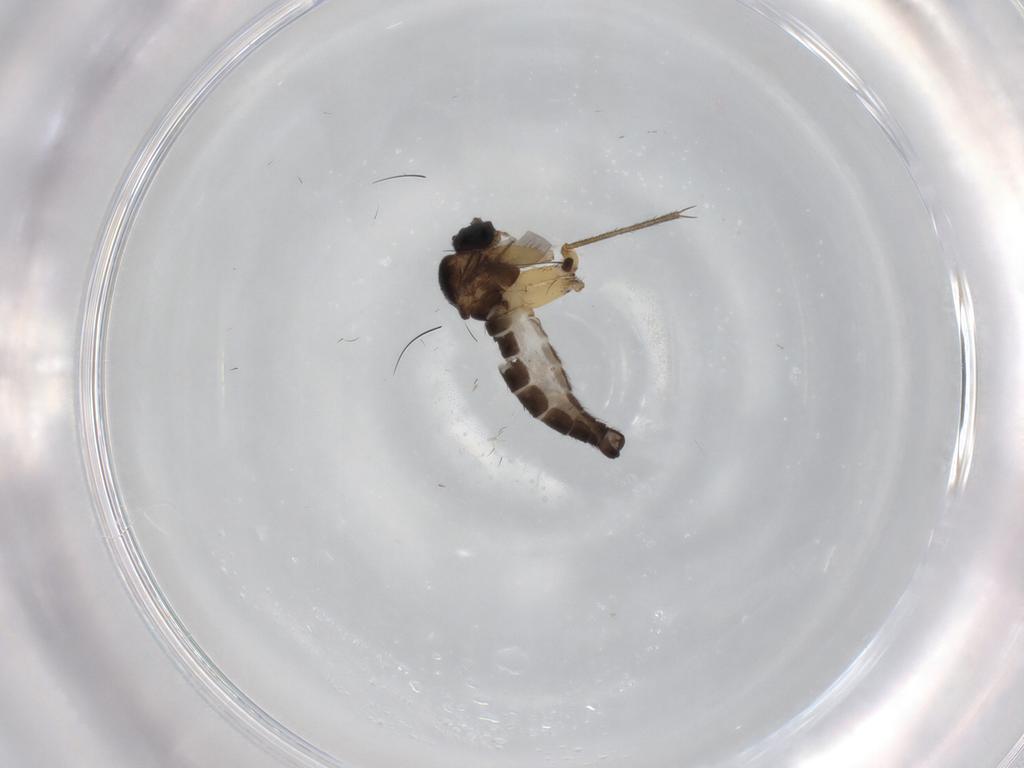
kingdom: Animalia
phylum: Arthropoda
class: Insecta
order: Diptera
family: Sciaridae
